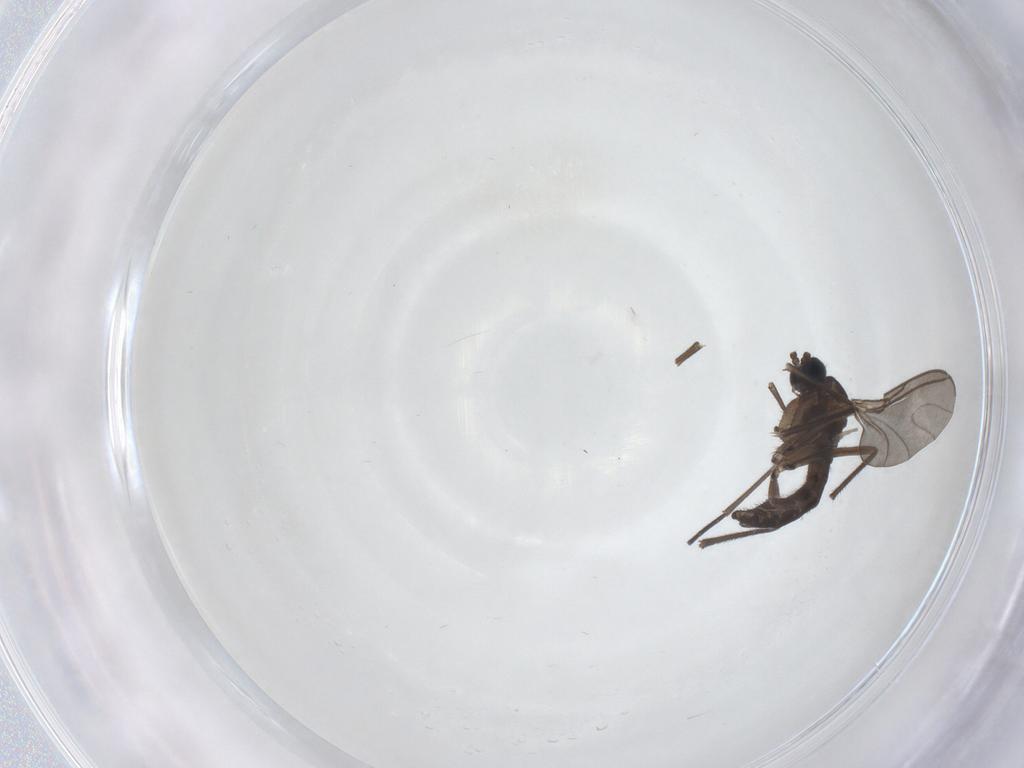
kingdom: Animalia
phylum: Arthropoda
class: Insecta
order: Diptera
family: Sciaridae
